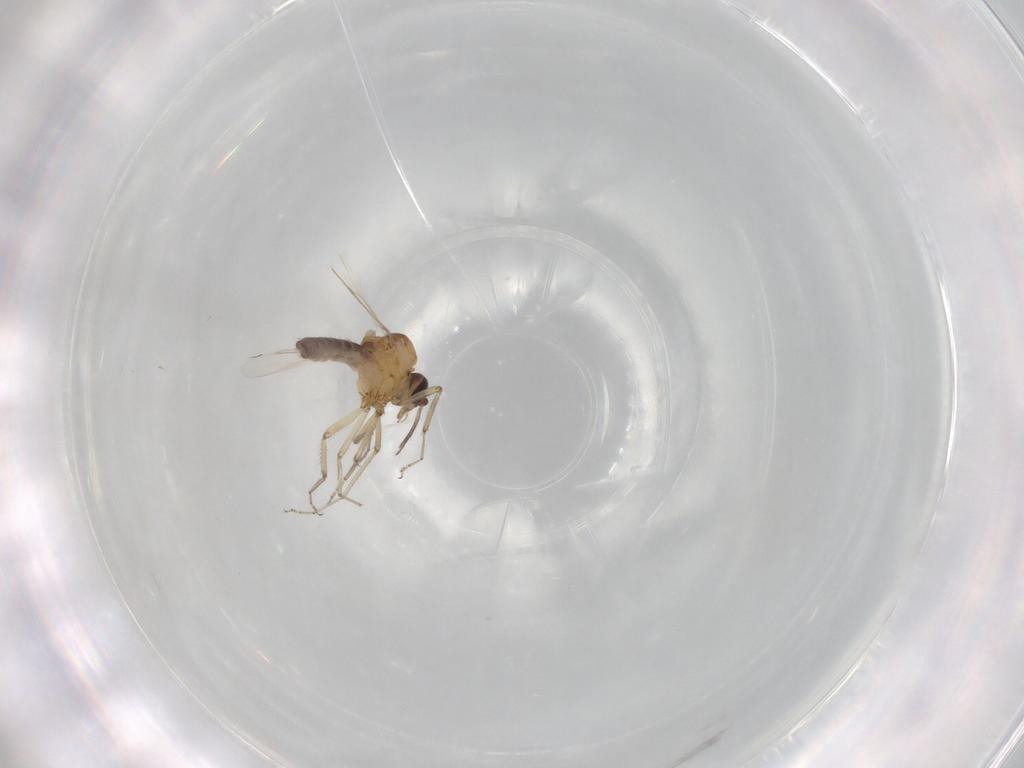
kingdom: Animalia
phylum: Arthropoda
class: Insecta
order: Diptera
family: Ceratopogonidae
